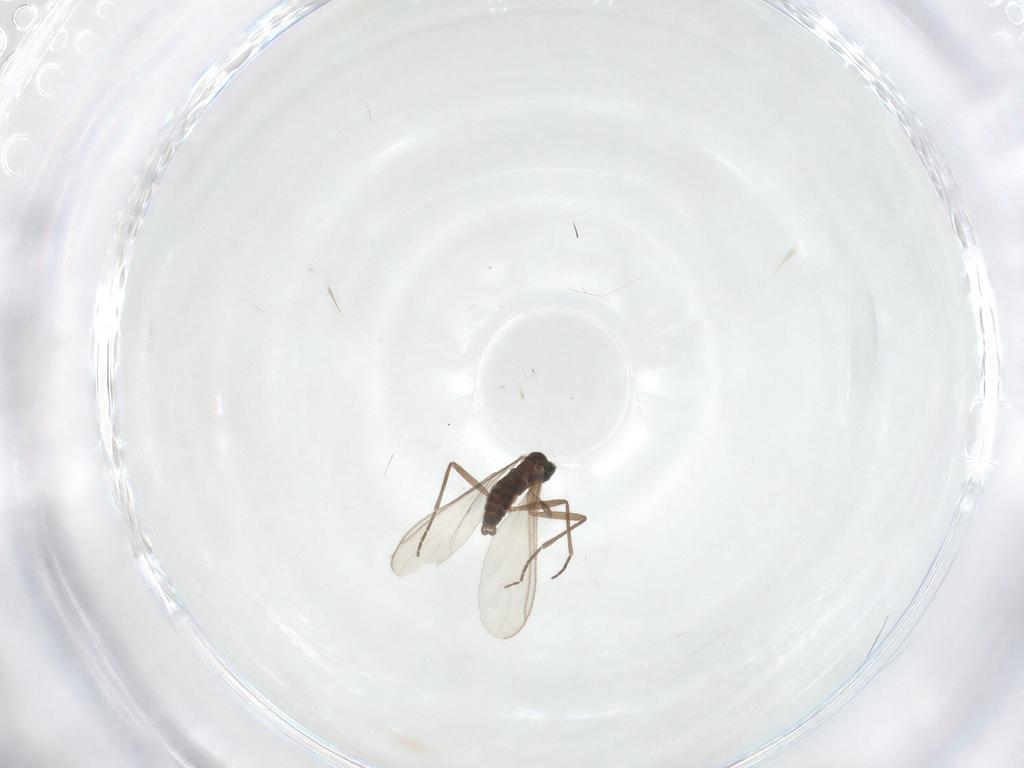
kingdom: Animalia
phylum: Arthropoda
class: Insecta
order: Diptera
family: Sciaridae
